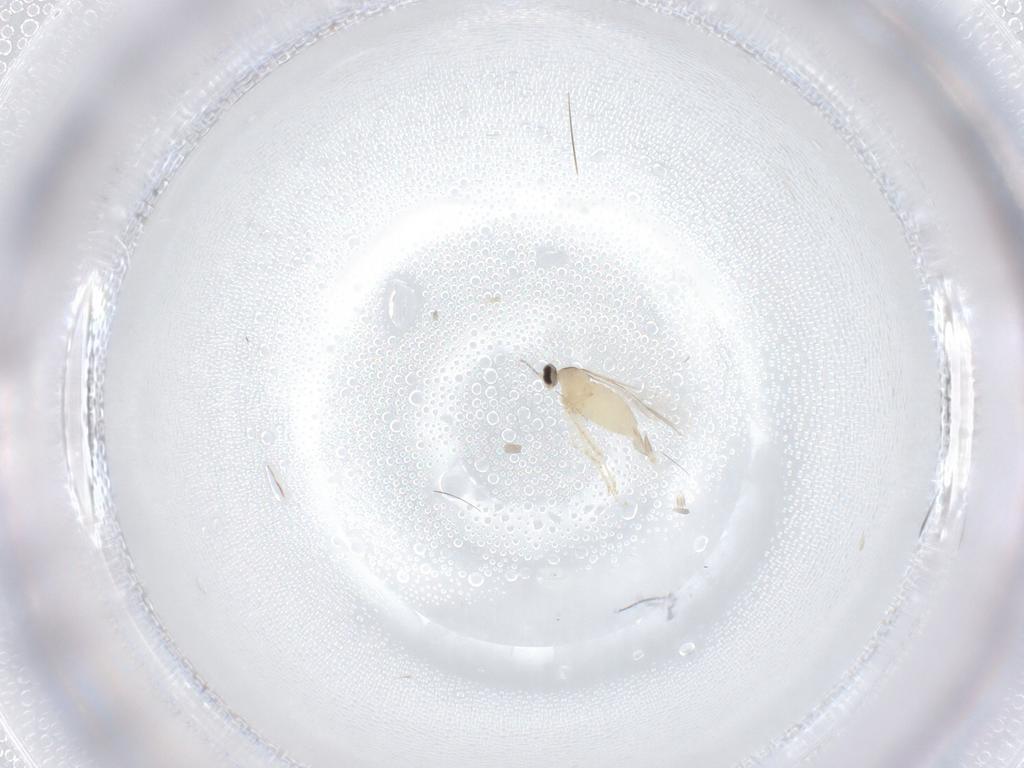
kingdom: Animalia
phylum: Arthropoda
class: Insecta
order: Diptera
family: Cecidomyiidae
